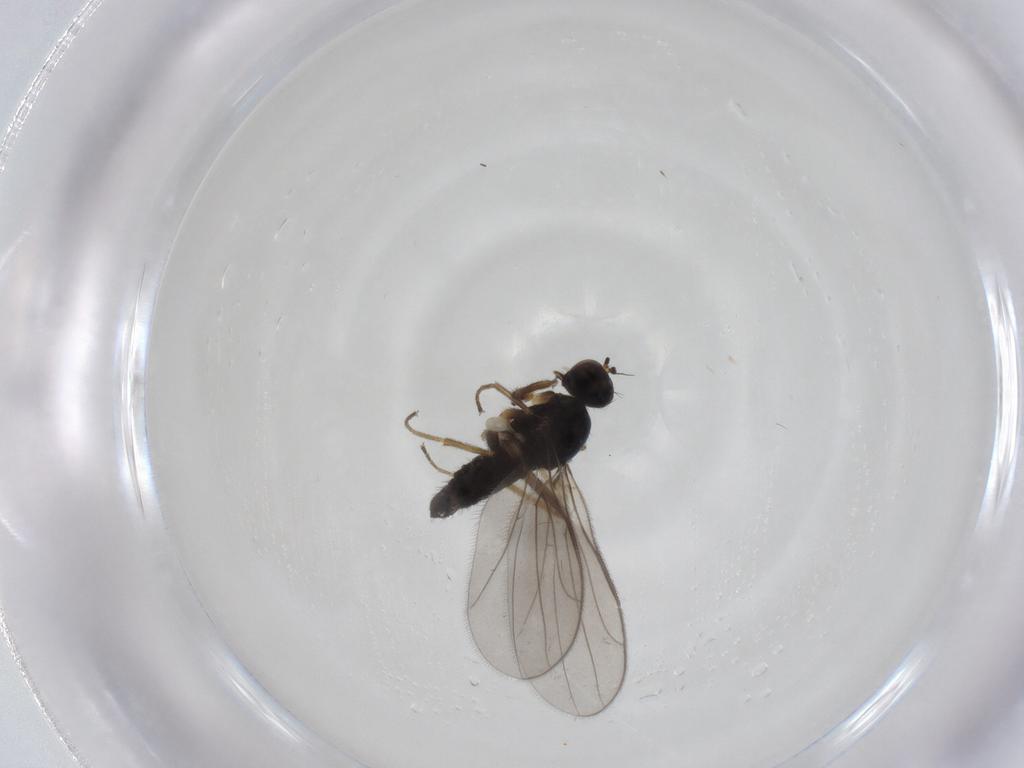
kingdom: Animalia
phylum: Arthropoda
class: Insecta
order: Diptera
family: Hybotidae
